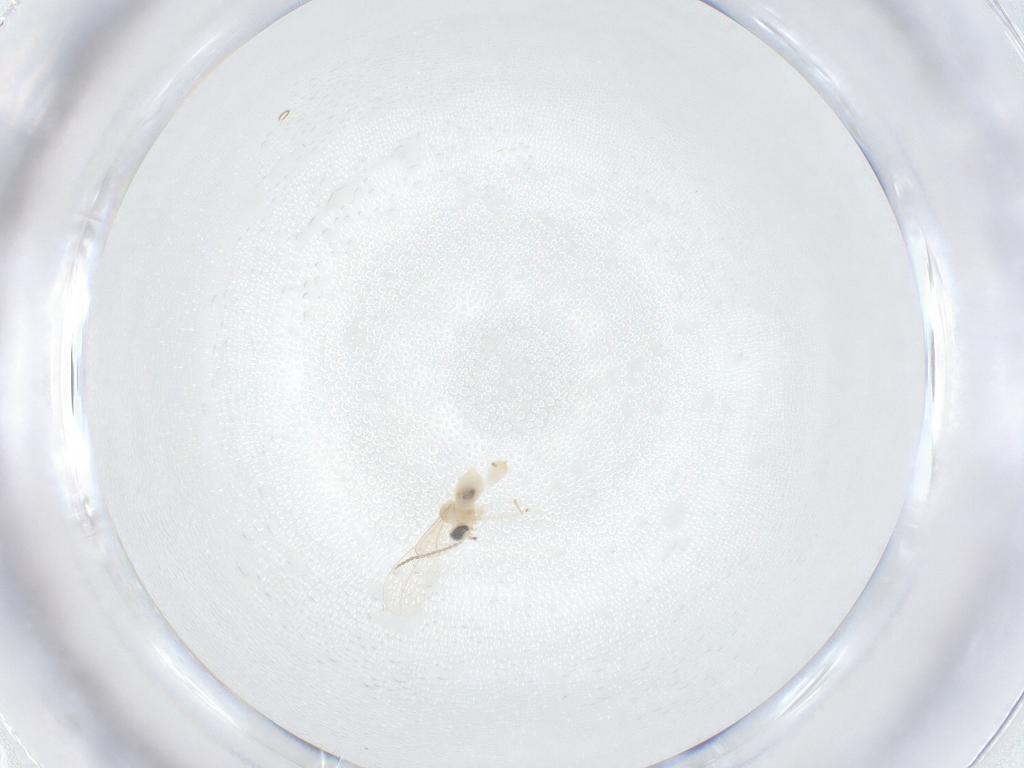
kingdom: Animalia
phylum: Arthropoda
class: Insecta
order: Diptera
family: Cecidomyiidae
